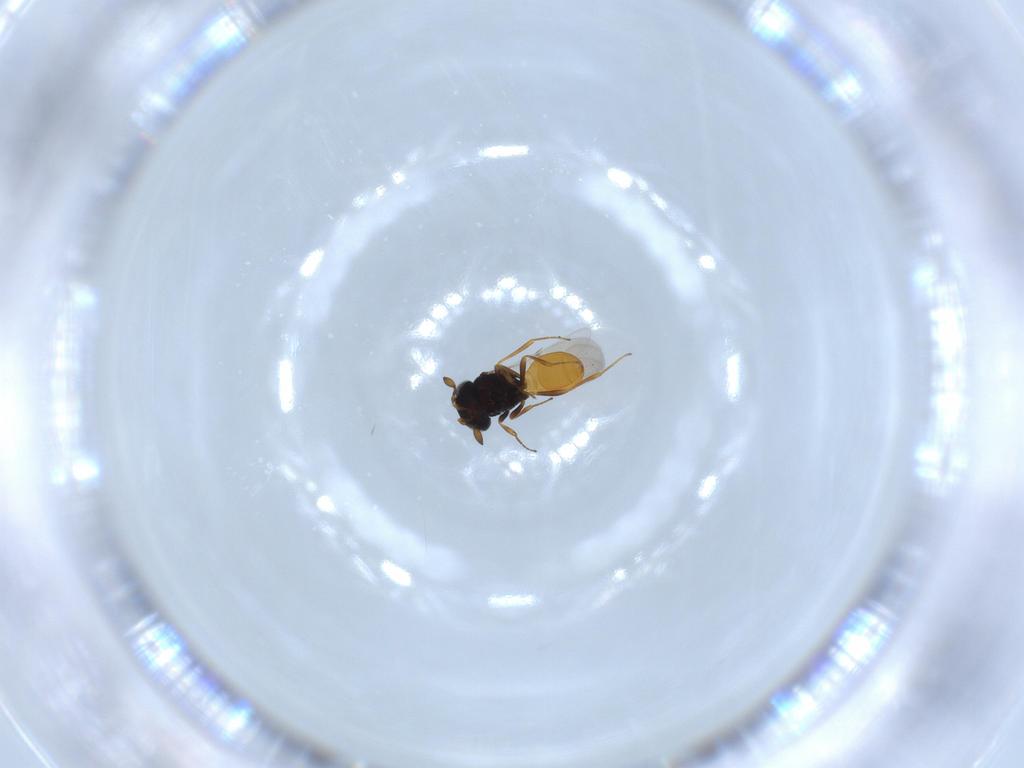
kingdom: Animalia
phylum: Arthropoda
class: Insecta
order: Hymenoptera
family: Scelionidae
